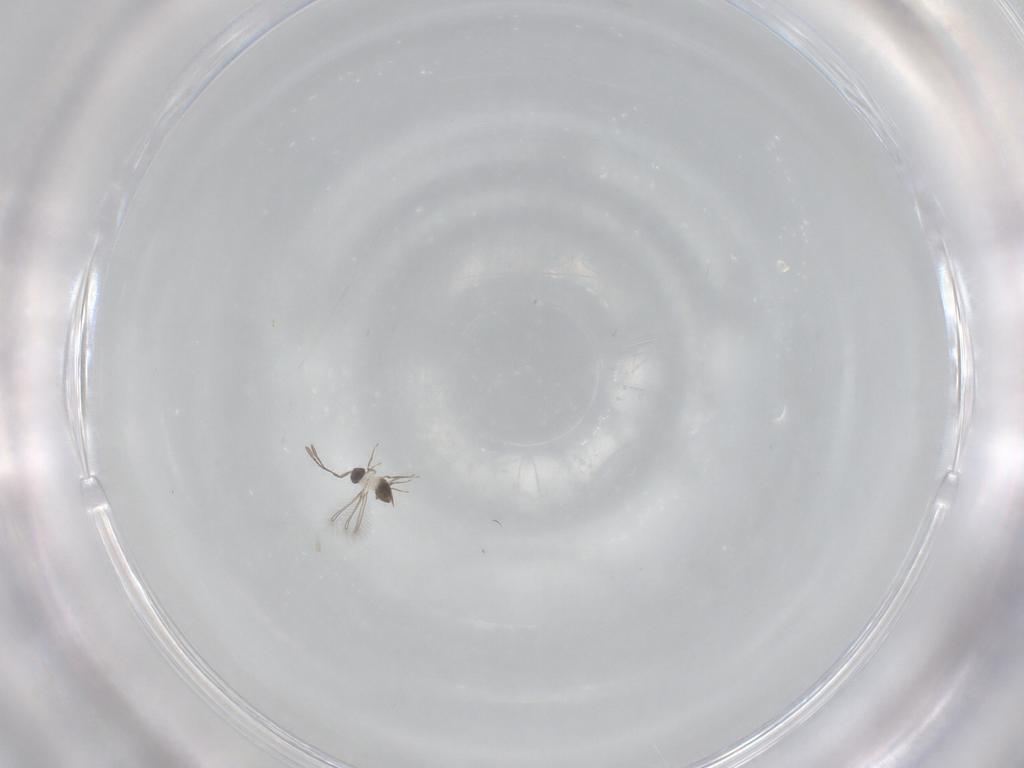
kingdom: Animalia
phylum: Arthropoda
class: Insecta
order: Hymenoptera
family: Mymaridae
